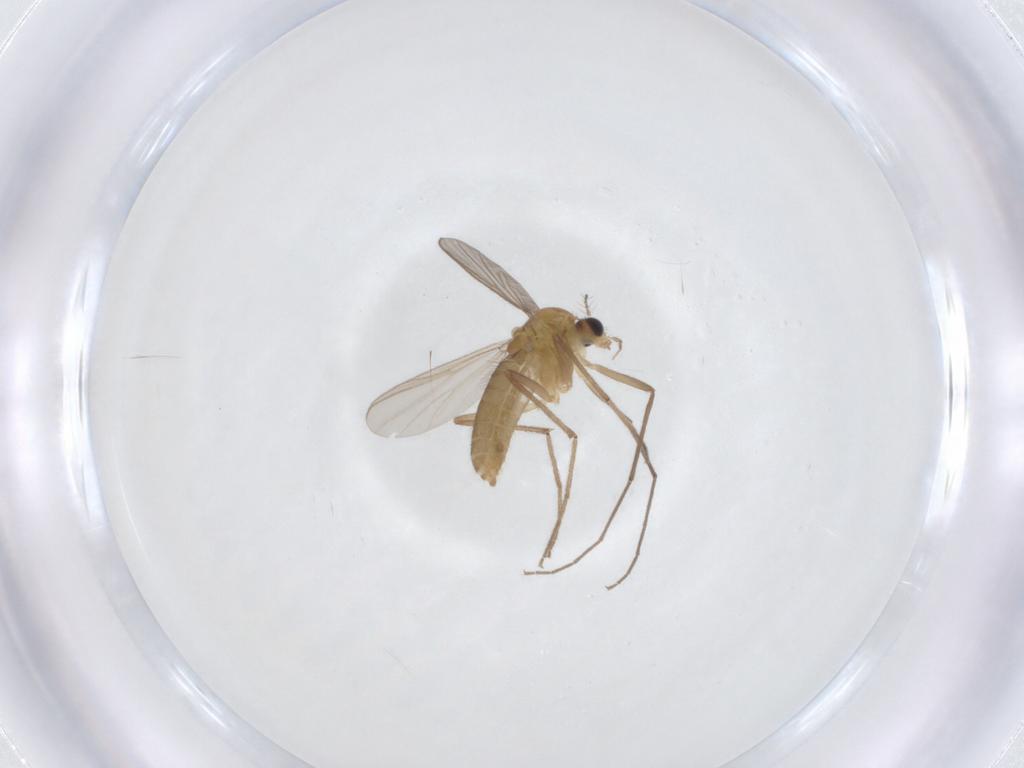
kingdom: Animalia
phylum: Arthropoda
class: Insecta
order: Diptera
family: Chironomidae
